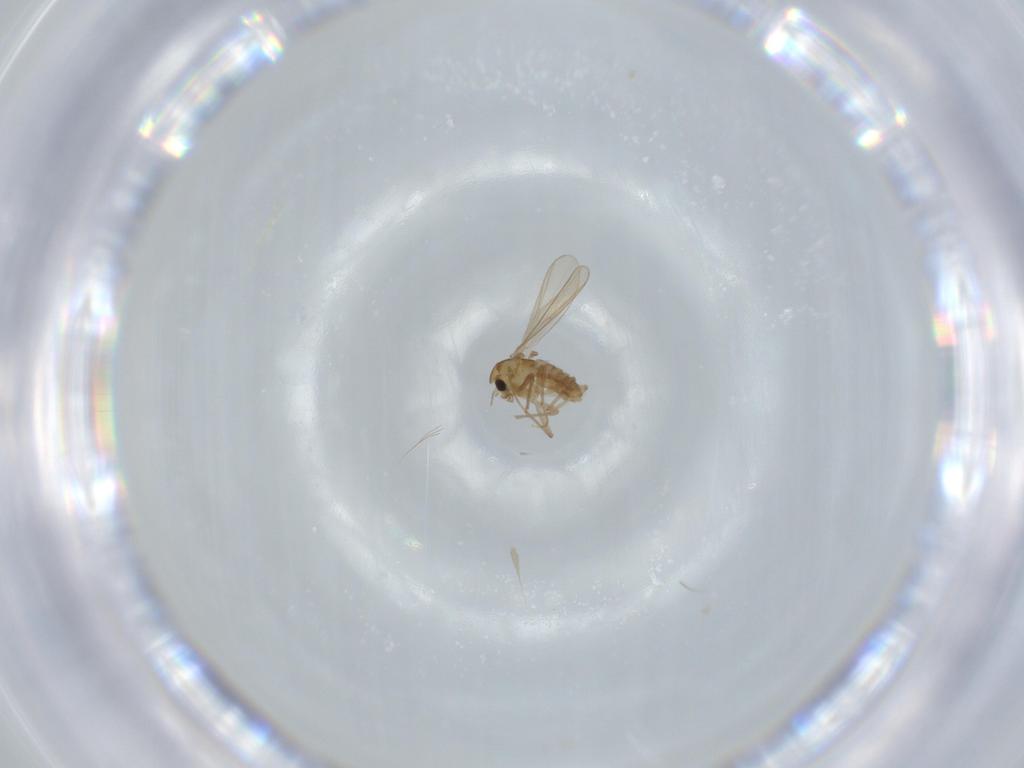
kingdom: Animalia
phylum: Arthropoda
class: Insecta
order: Diptera
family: Chironomidae
